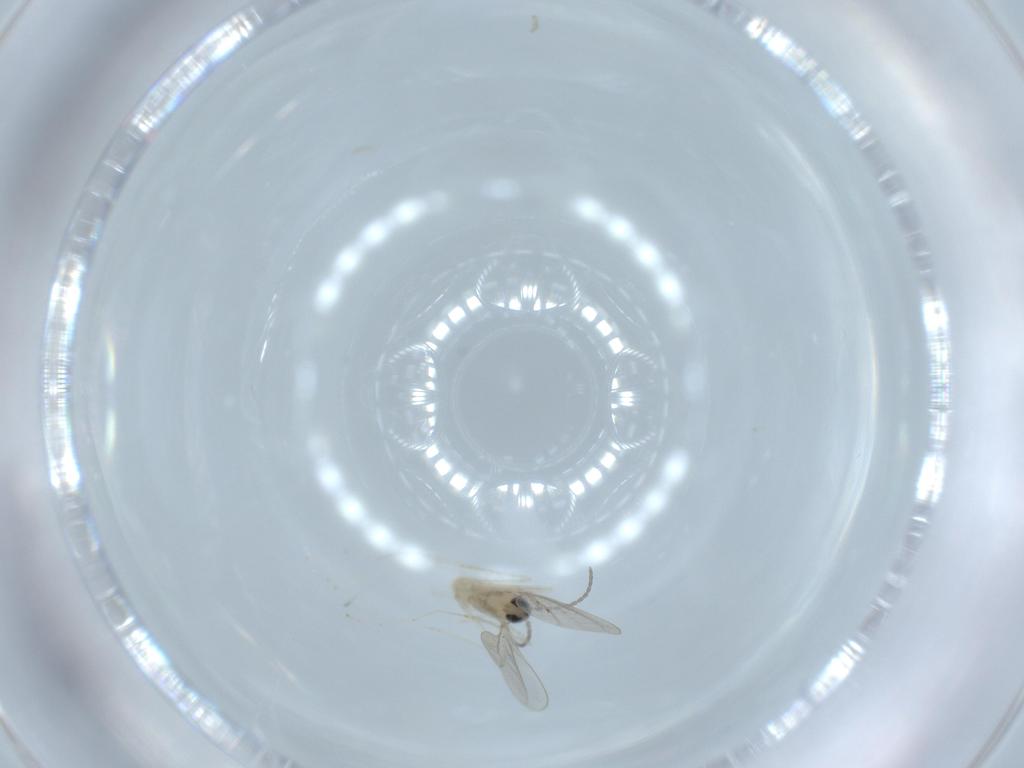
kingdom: Animalia
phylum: Arthropoda
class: Insecta
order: Diptera
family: Cecidomyiidae
